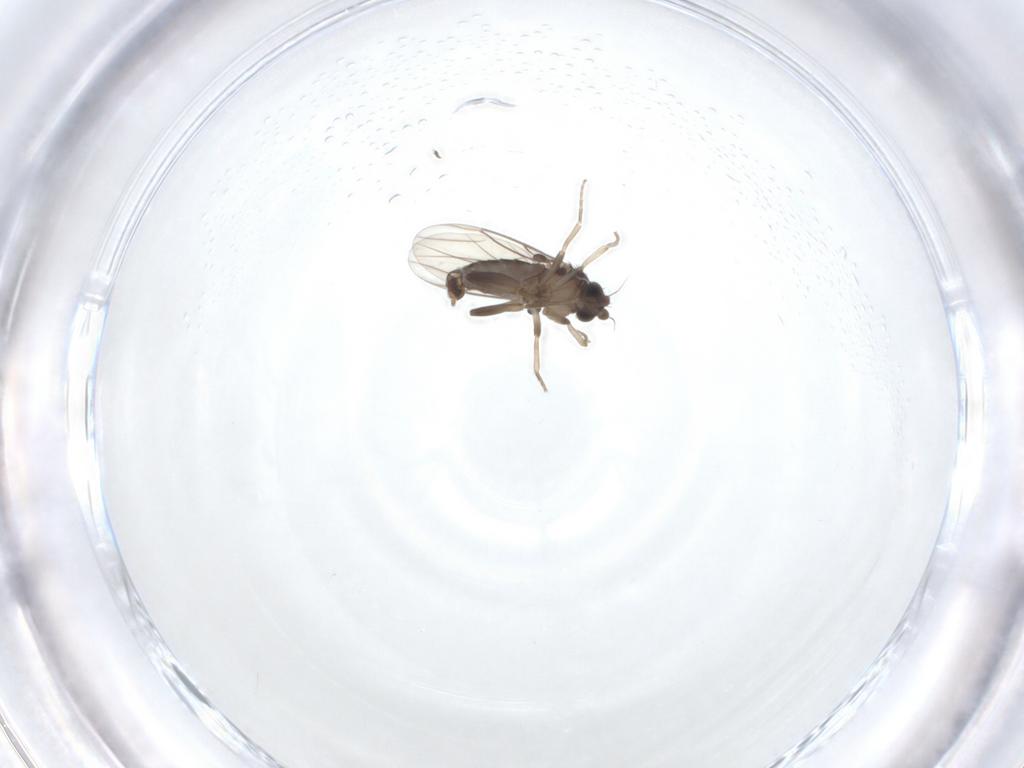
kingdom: Animalia
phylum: Arthropoda
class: Insecta
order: Diptera
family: Phoridae
